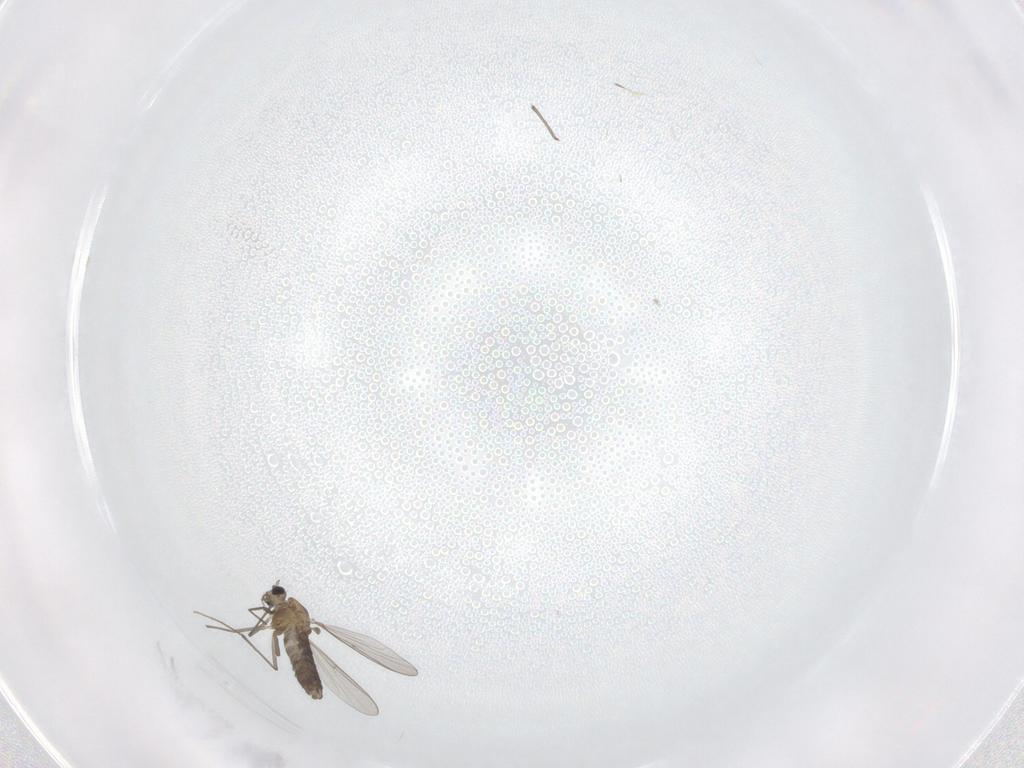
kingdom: Animalia
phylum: Arthropoda
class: Insecta
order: Diptera
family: Chironomidae
